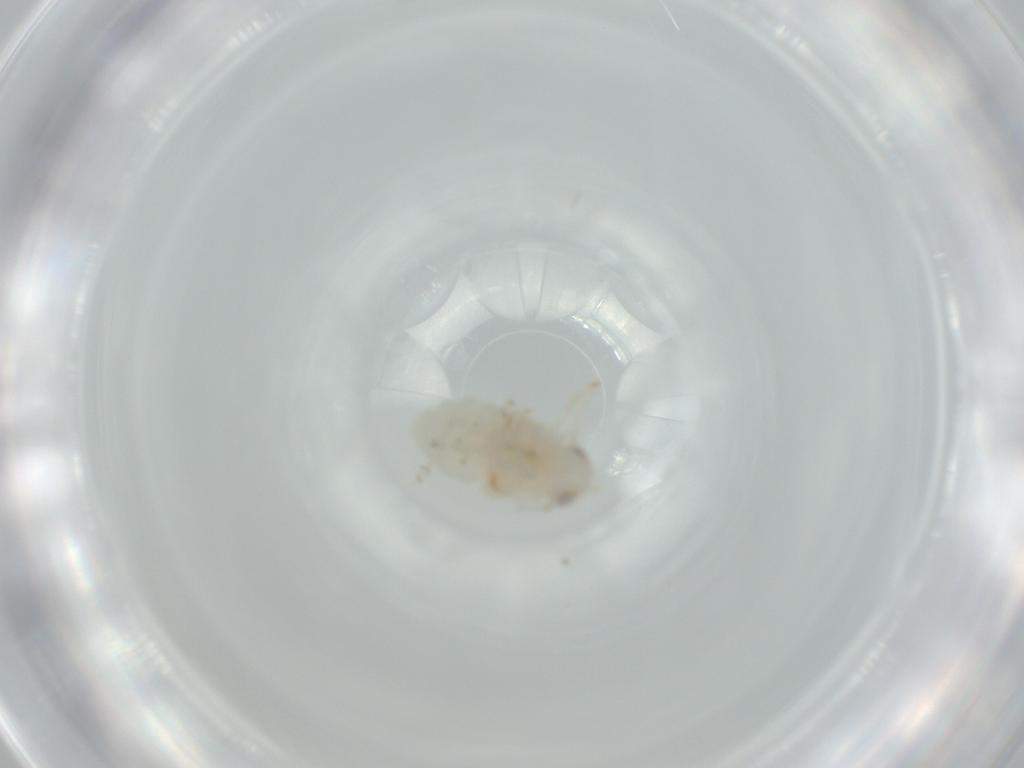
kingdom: Animalia
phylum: Arthropoda
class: Insecta
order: Hemiptera
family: Nogodinidae
